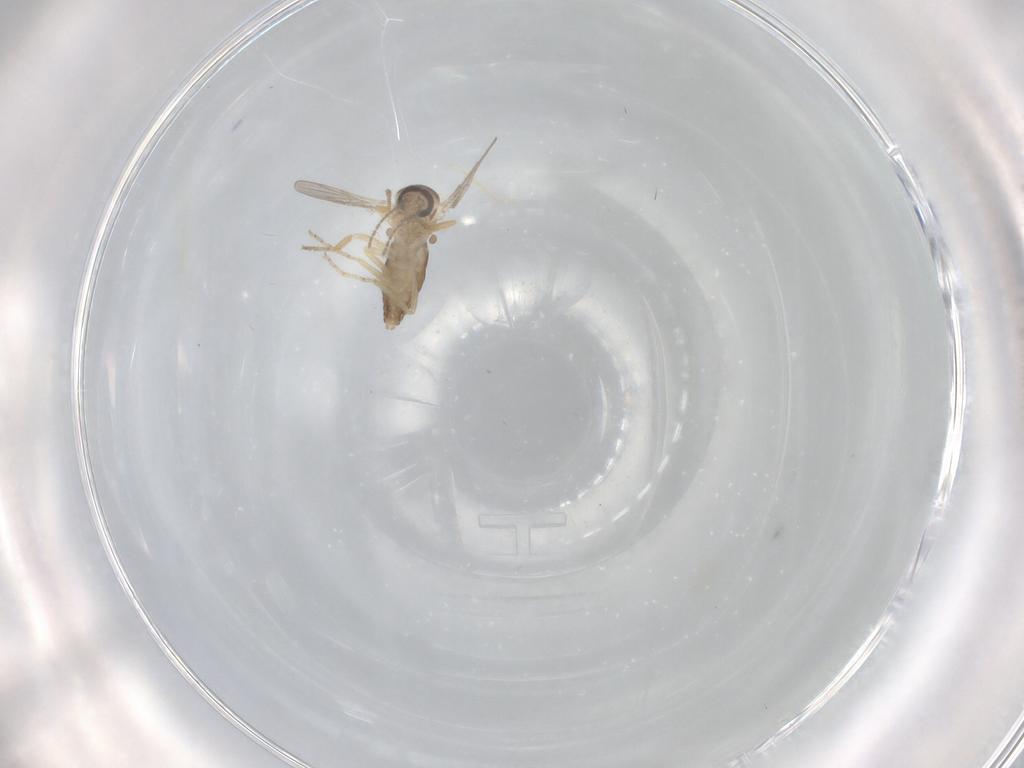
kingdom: Animalia
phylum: Arthropoda
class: Insecta
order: Diptera
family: Ceratopogonidae
